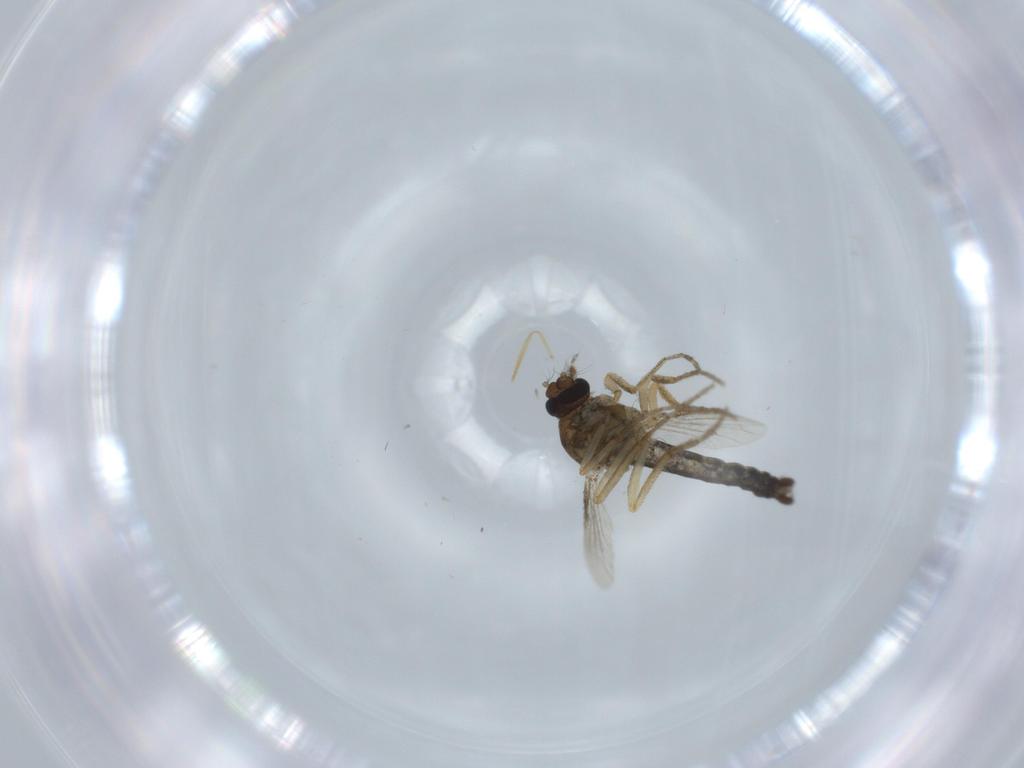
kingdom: Animalia
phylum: Arthropoda
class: Insecta
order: Diptera
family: Ceratopogonidae
